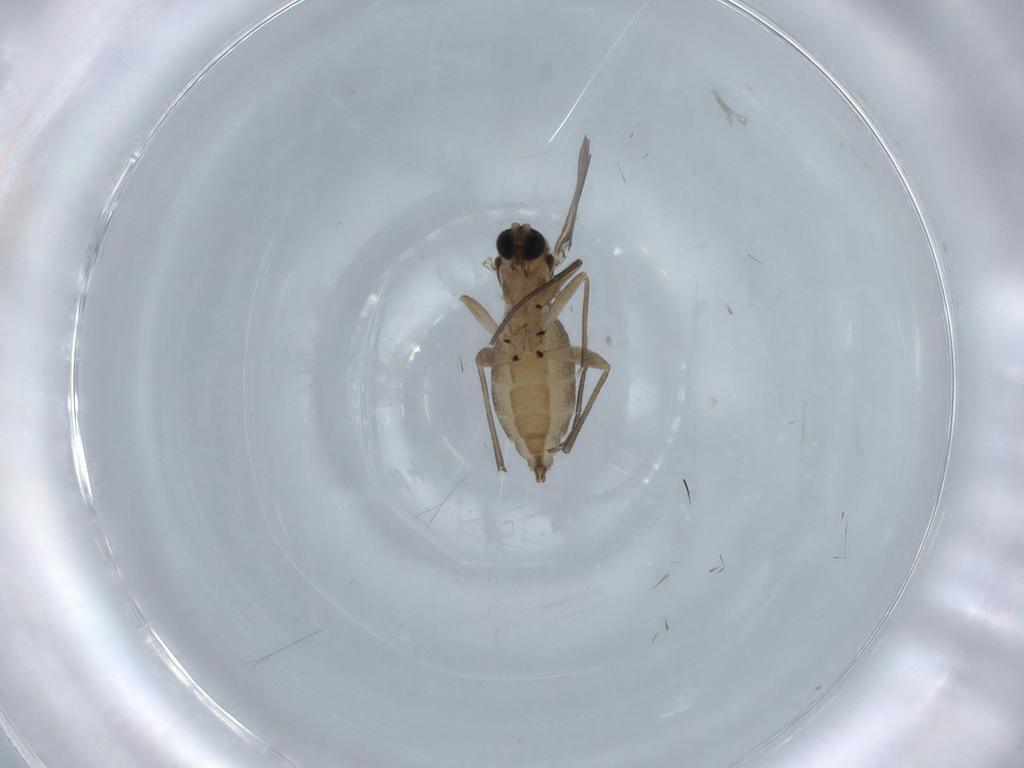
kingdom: Animalia
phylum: Arthropoda
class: Insecta
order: Diptera
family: Sciaridae
